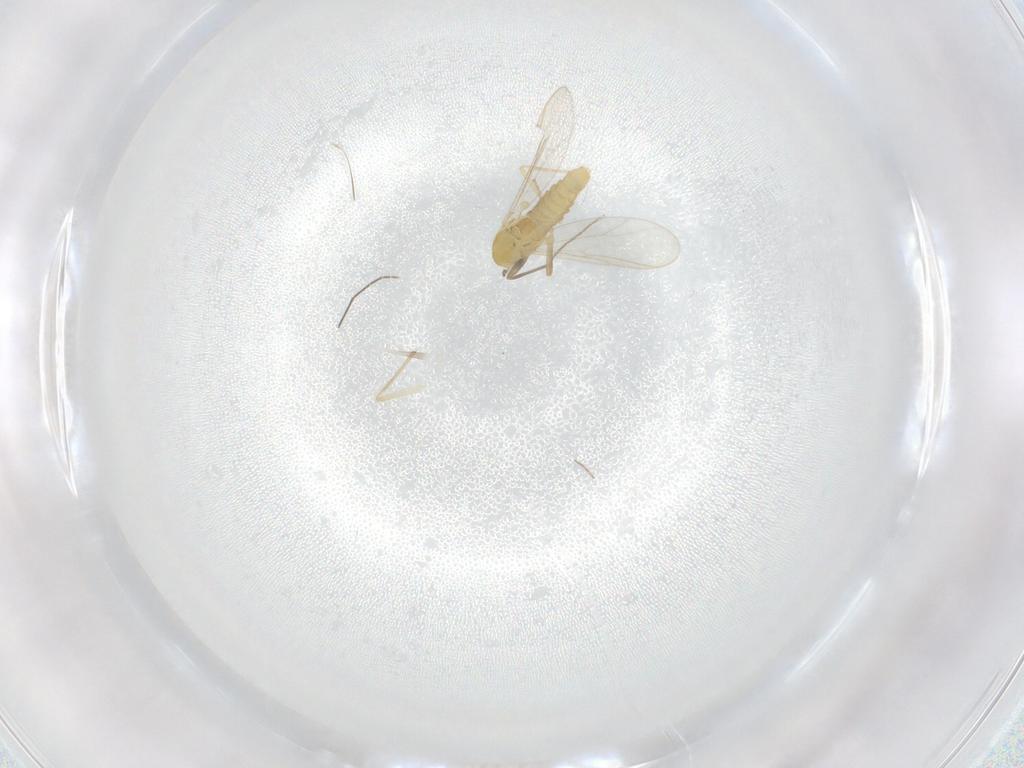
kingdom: Animalia
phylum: Arthropoda
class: Insecta
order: Diptera
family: Chironomidae
